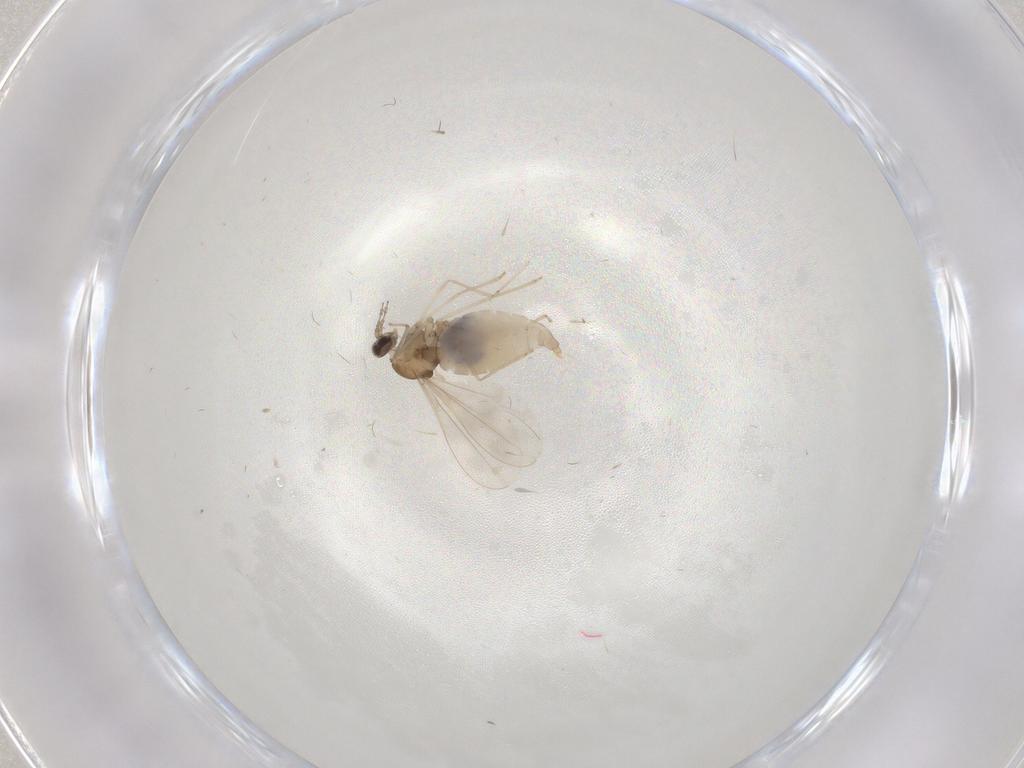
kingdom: Animalia
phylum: Arthropoda
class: Insecta
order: Diptera
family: Cecidomyiidae
